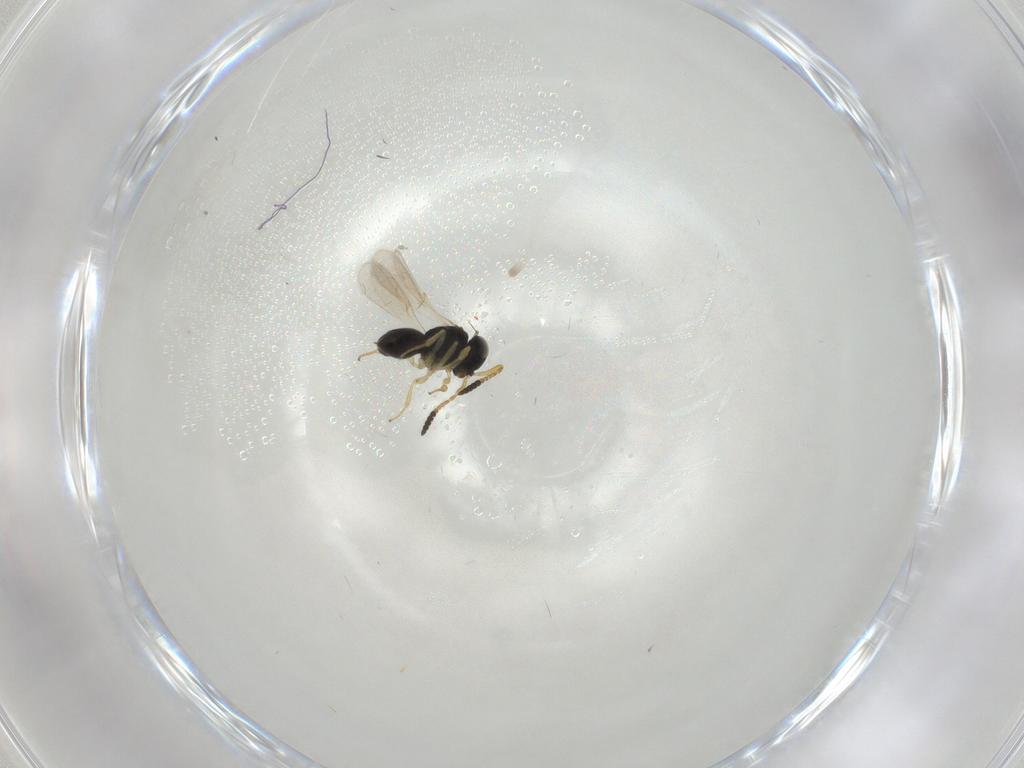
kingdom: Animalia
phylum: Arthropoda
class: Insecta
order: Hymenoptera
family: Scelionidae
